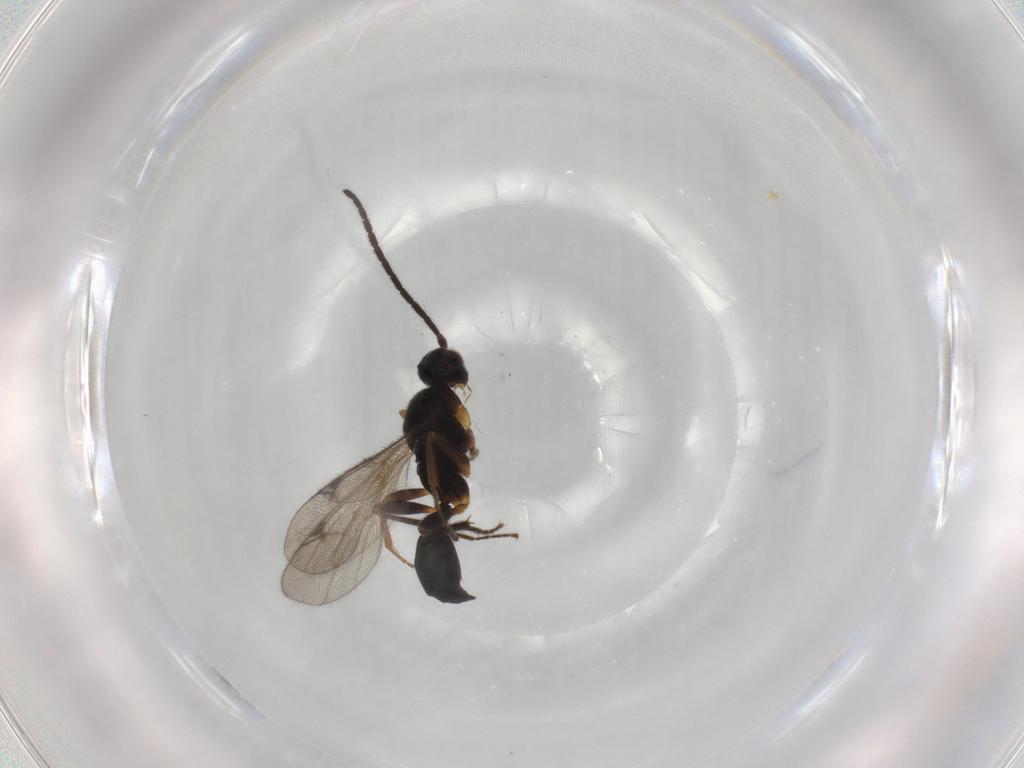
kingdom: Animalia
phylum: Arthropoda
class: Insecta
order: Hymenoptera
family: Proctotrupidae
